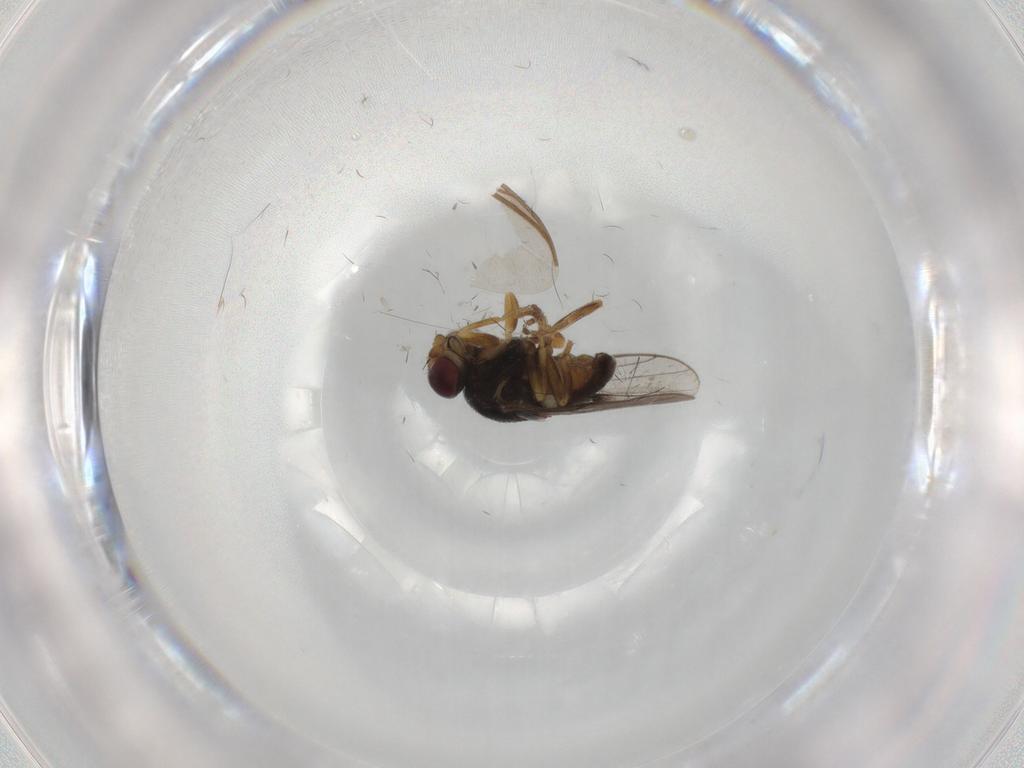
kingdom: Animalia
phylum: Arthropoda
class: Insecta
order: Diptera
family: Chloropidae
